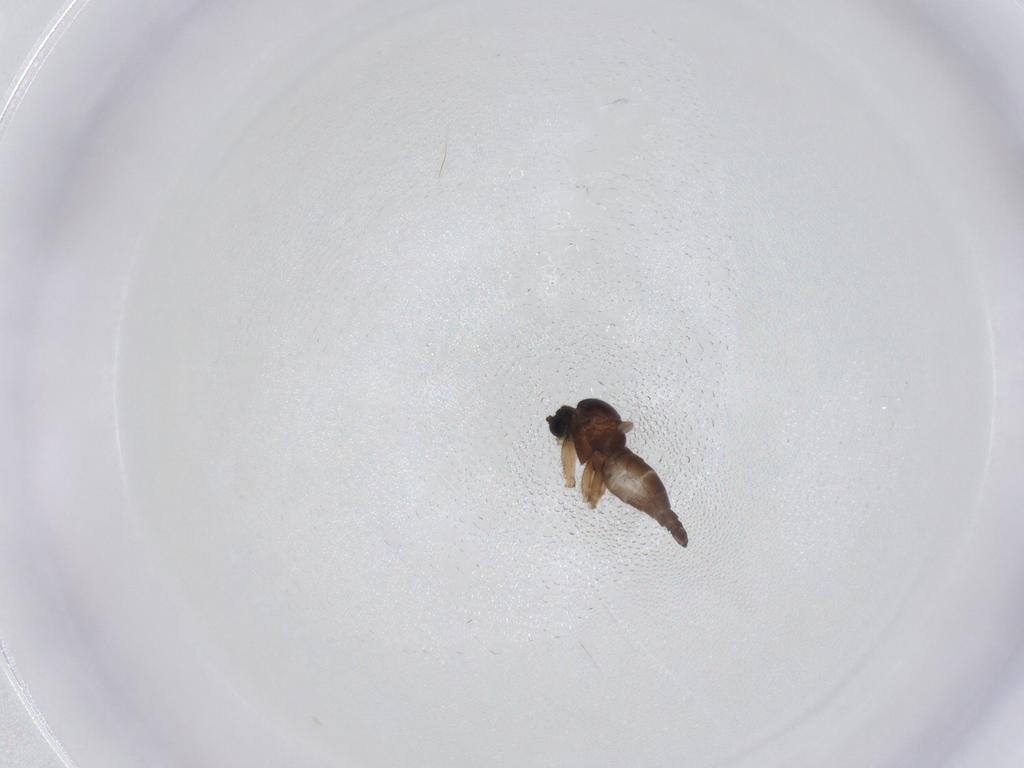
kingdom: Animalia
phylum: Arthropoda
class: Insecta
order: Diptera
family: Sciaridae
